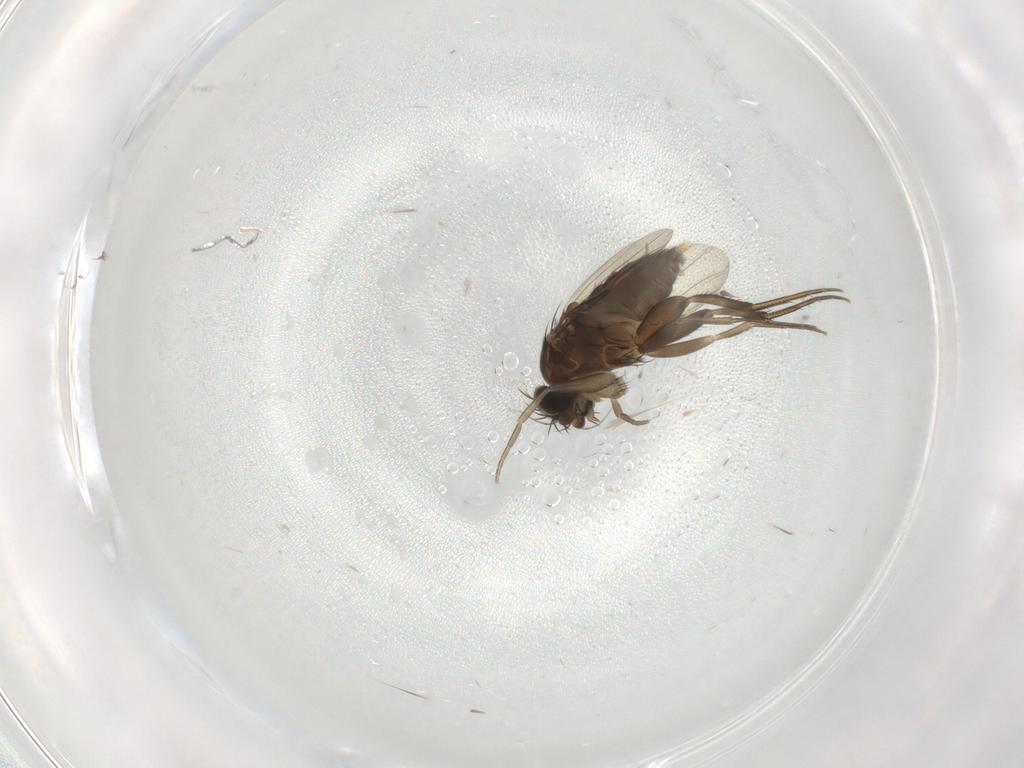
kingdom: Animalia
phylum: Arthropoda
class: Insecta
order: Diptera
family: Phoridae
